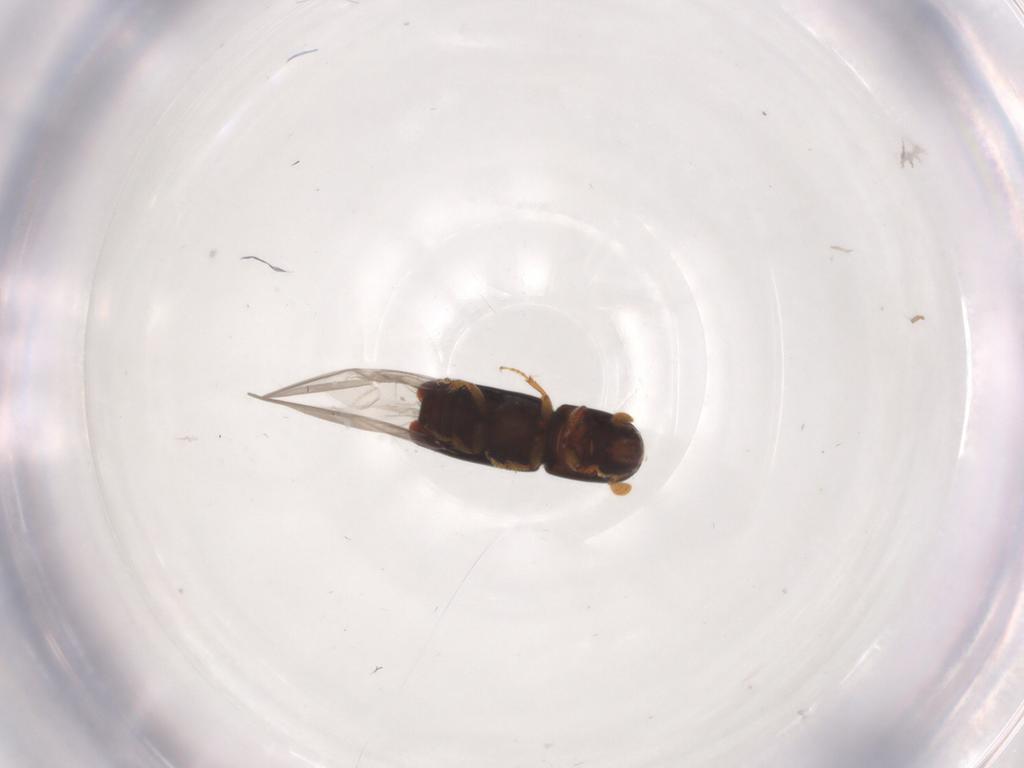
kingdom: Animalia
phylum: Arthropoda
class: Insecta
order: Coleoptera
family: Curculionidae
